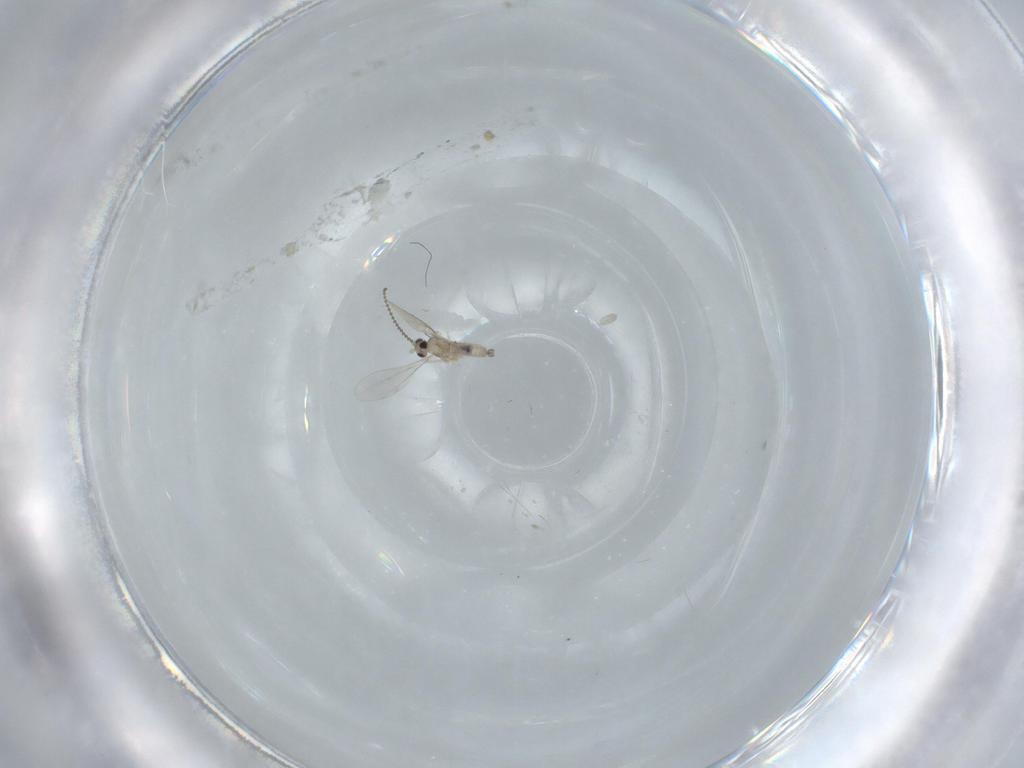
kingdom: Animalia
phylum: Arthropoda
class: Insecta
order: Diptera
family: Cecidomyiidae
